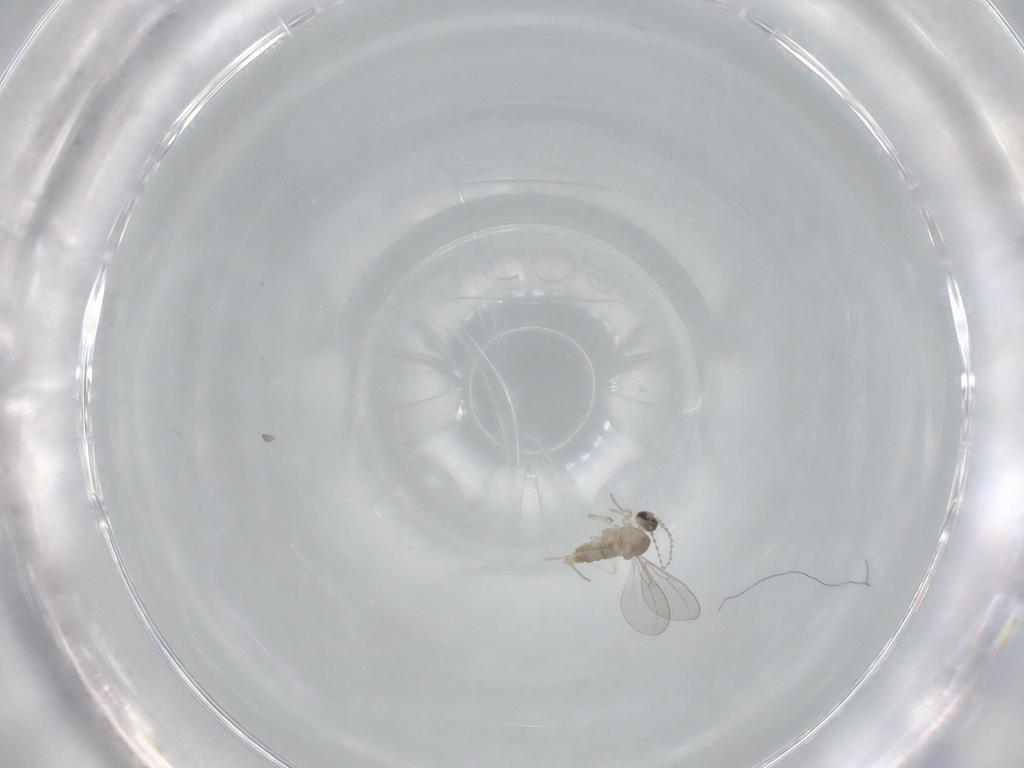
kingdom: Animalia
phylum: Arthropoda
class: Insecta
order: Diptera
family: Cecidomyiidae
